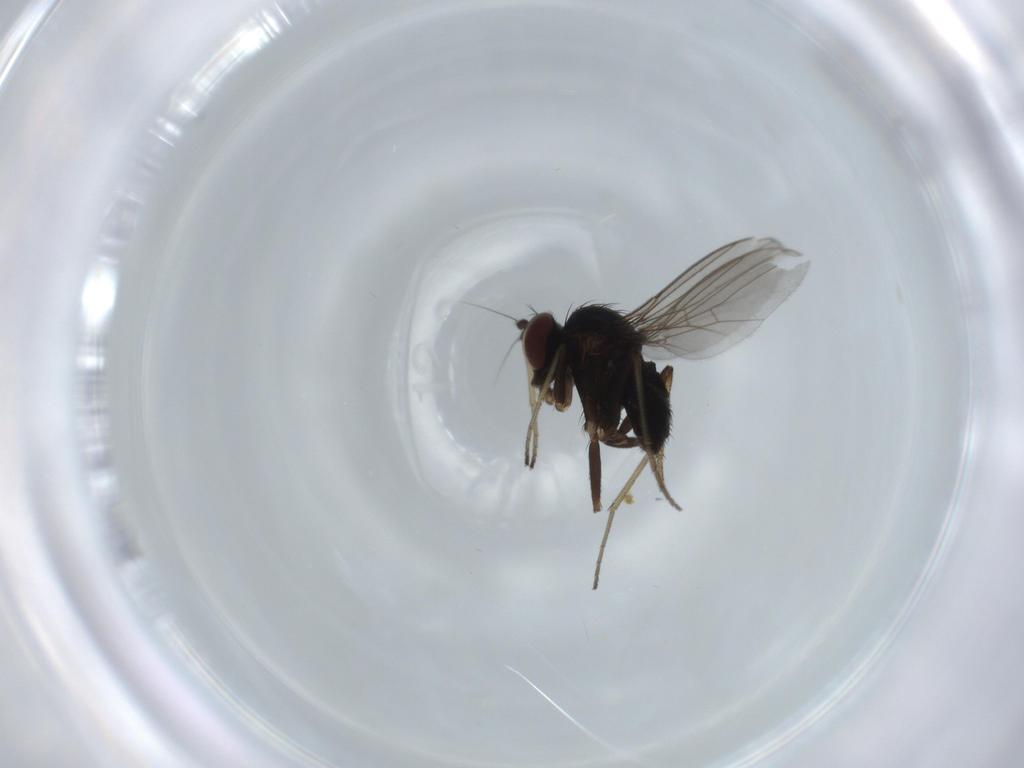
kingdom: Animalia
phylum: Arthropoda
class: Insecta
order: Diptera
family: Dolichopodidae
